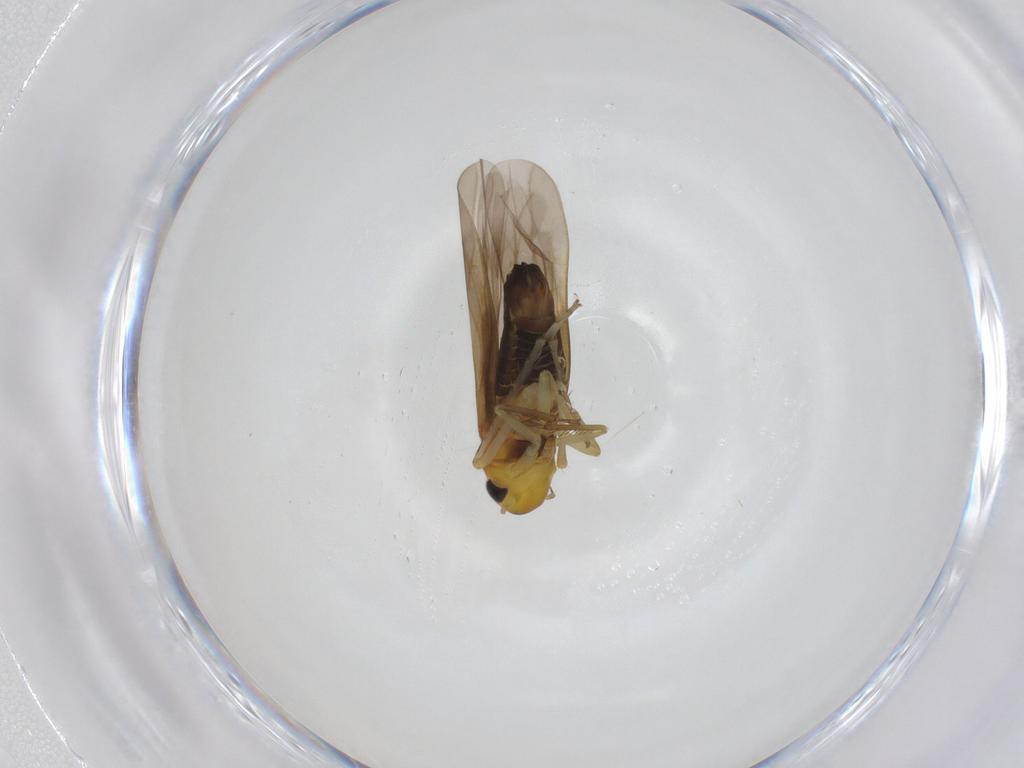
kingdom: Animalia
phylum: Arthropoda
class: Insecta
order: Hemiptera
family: Cicadellidae
